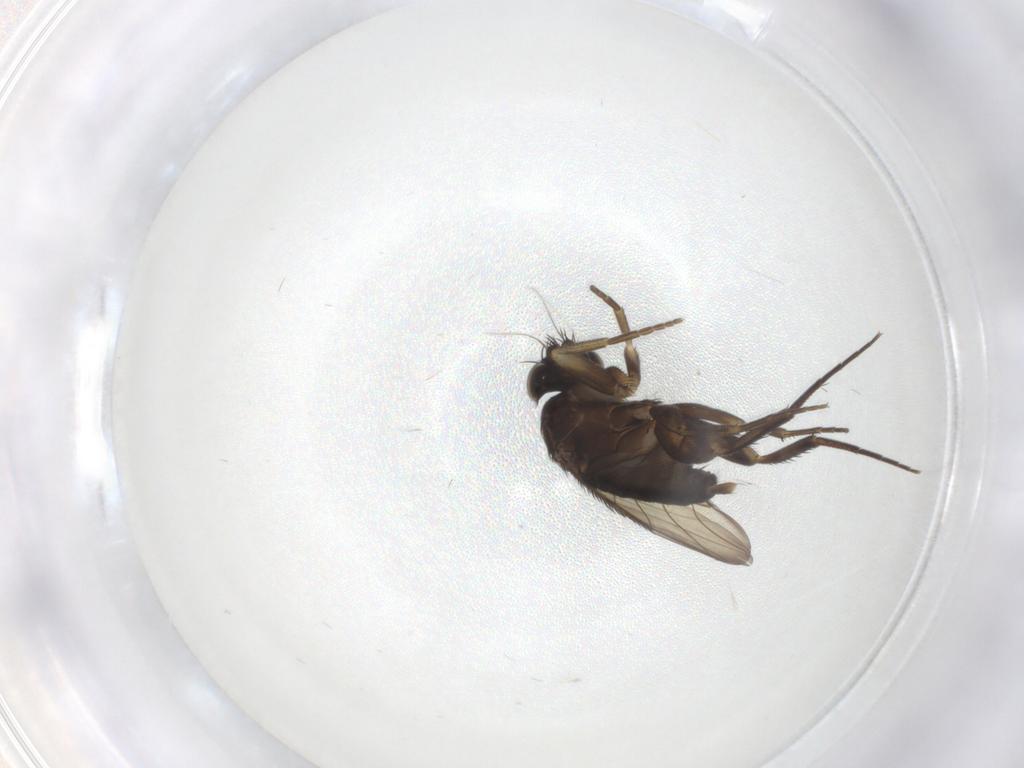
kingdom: Animalia
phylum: Arthropoda
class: Insecta
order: Diptera
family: Phoridae
